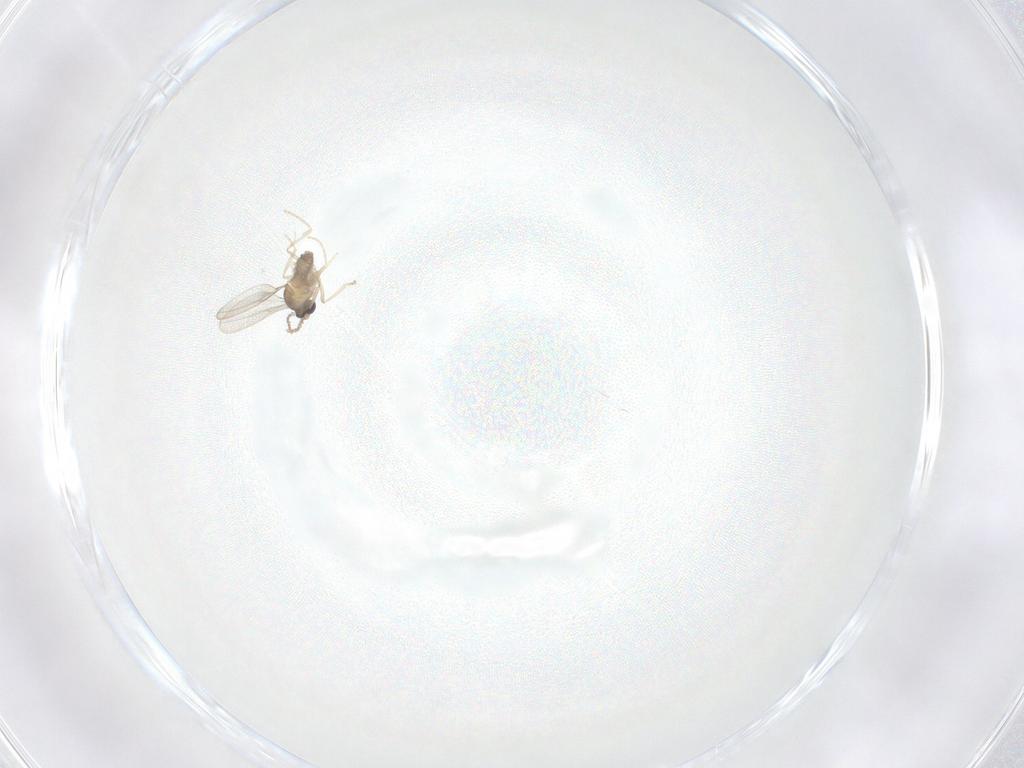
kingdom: Animalia
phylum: Arthropoda
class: Insecta
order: Diptera
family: Cecidomyiidae
